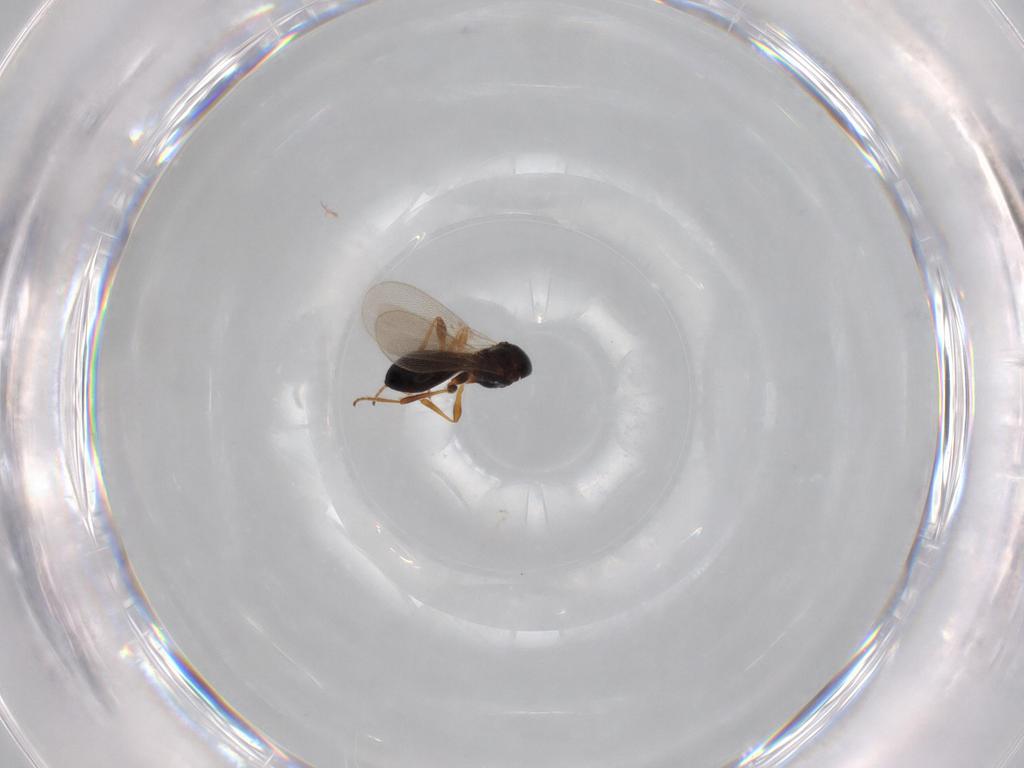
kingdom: Animalia
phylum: Arthropoda
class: Insecta
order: Hymenoptera
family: Platygastridae
